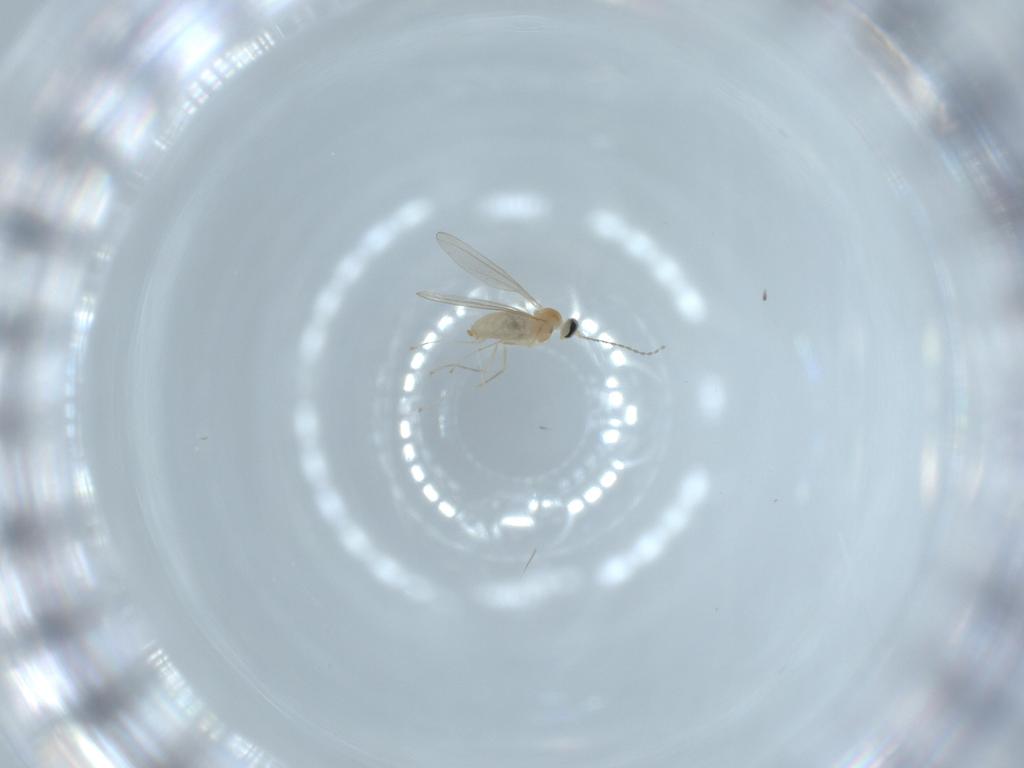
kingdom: Animalia
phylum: Arthropoda
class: Insecta
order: Diptera
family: Cecidomyiidae
